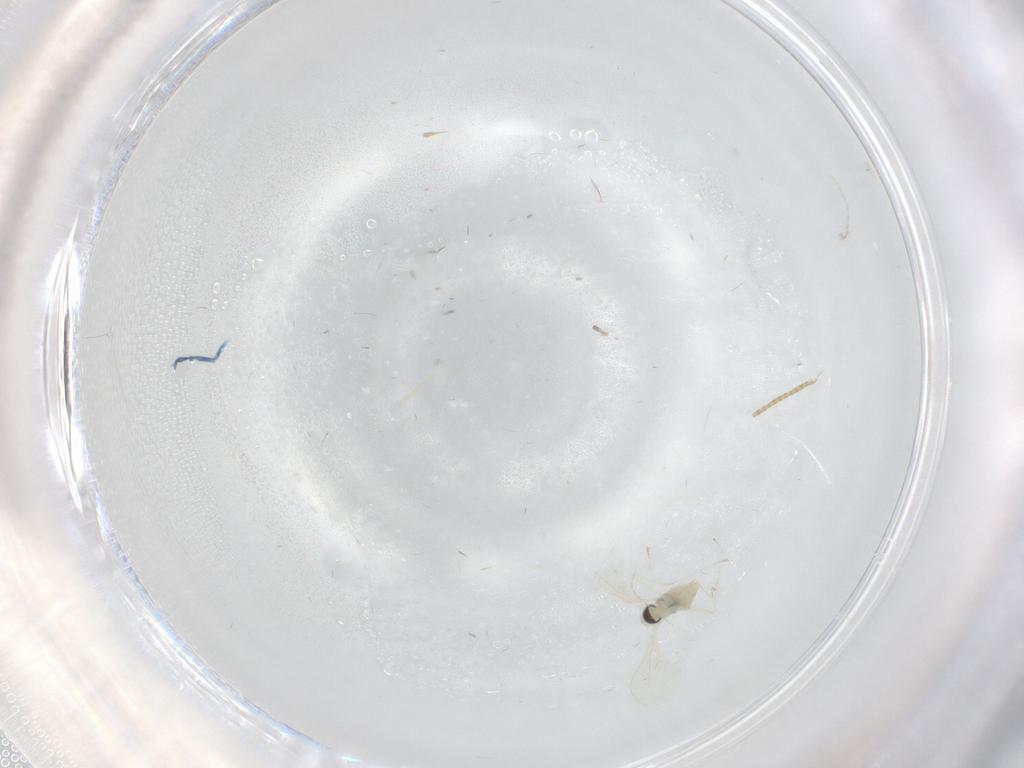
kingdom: Animalia
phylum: Arthropoda
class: Insecta
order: Diptera
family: Cecidomyiidae
